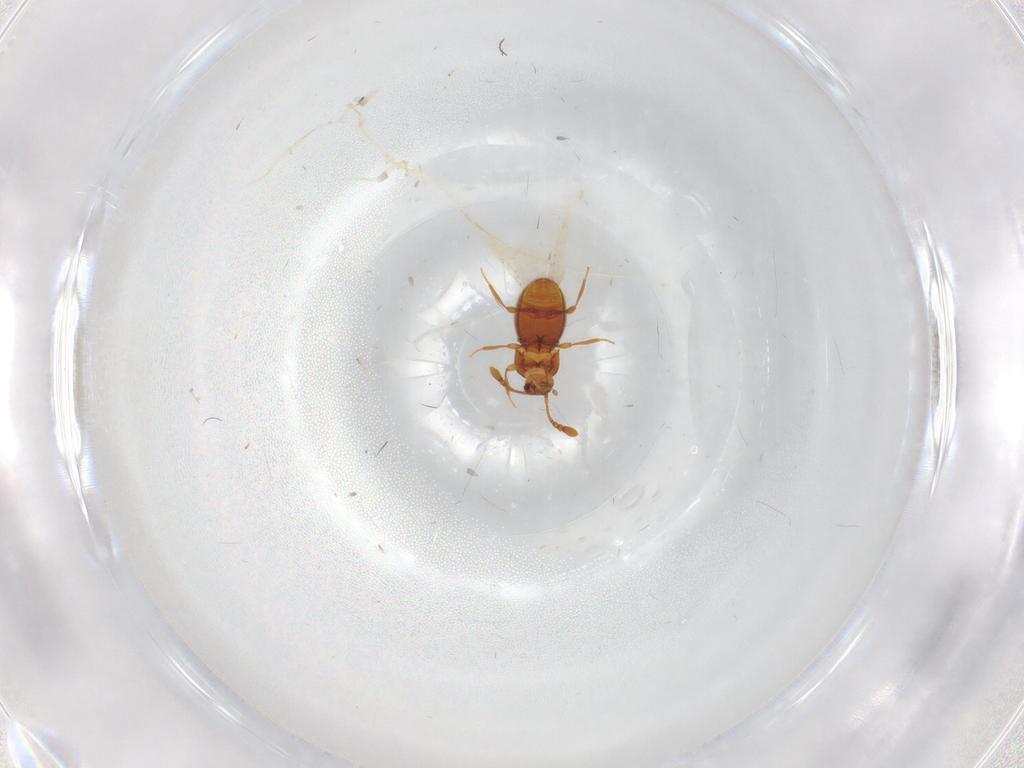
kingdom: Animalia
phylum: Arthropoda
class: Insecta
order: Coleoptera
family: Staphylinidae
